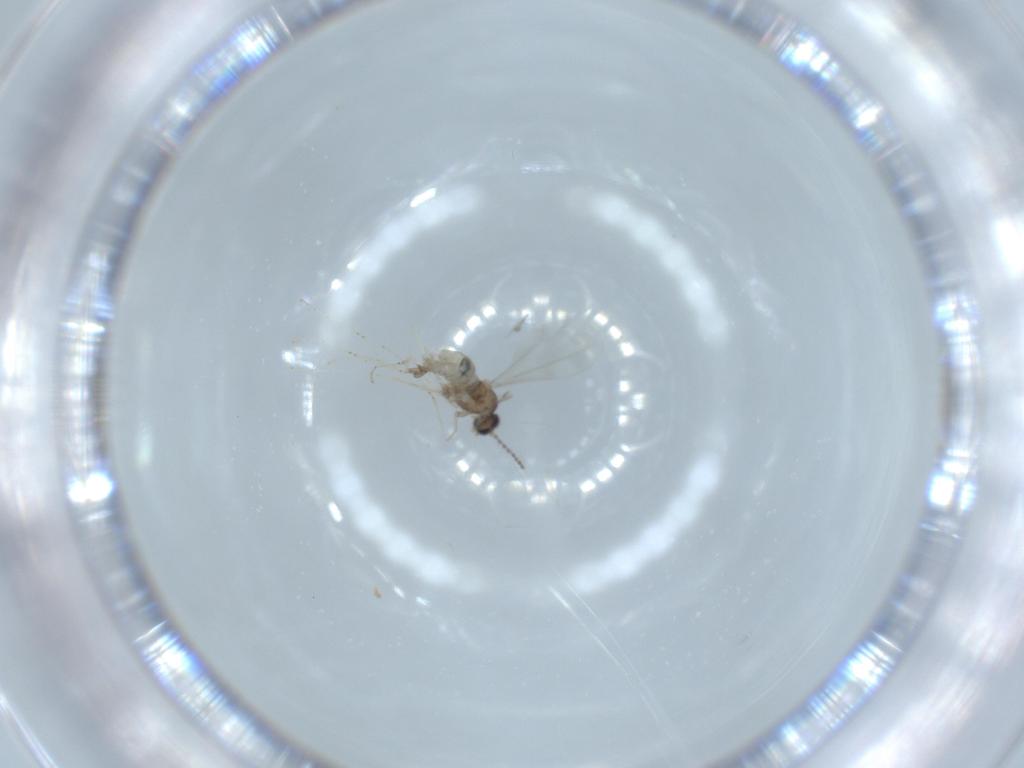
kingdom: Animalia
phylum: Arthropoda
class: Insecta
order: Diptera
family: Cecidomyiidae
